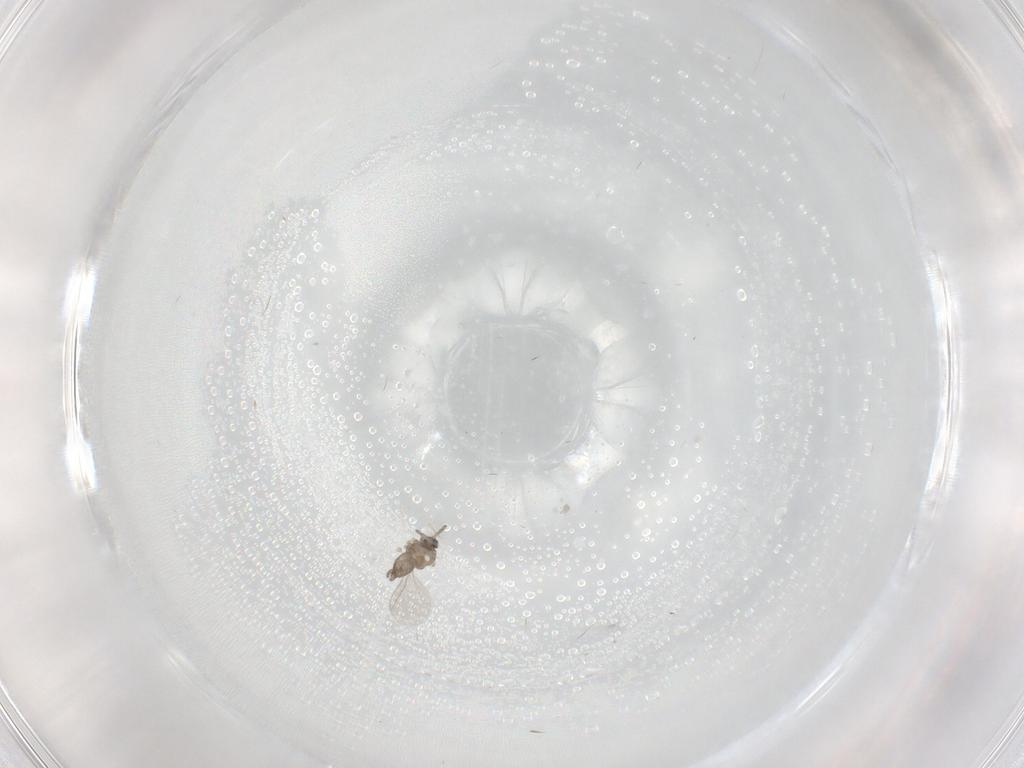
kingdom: Animalia
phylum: Arthropoda
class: Insecta
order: Diptera
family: Cecidomyiidae
